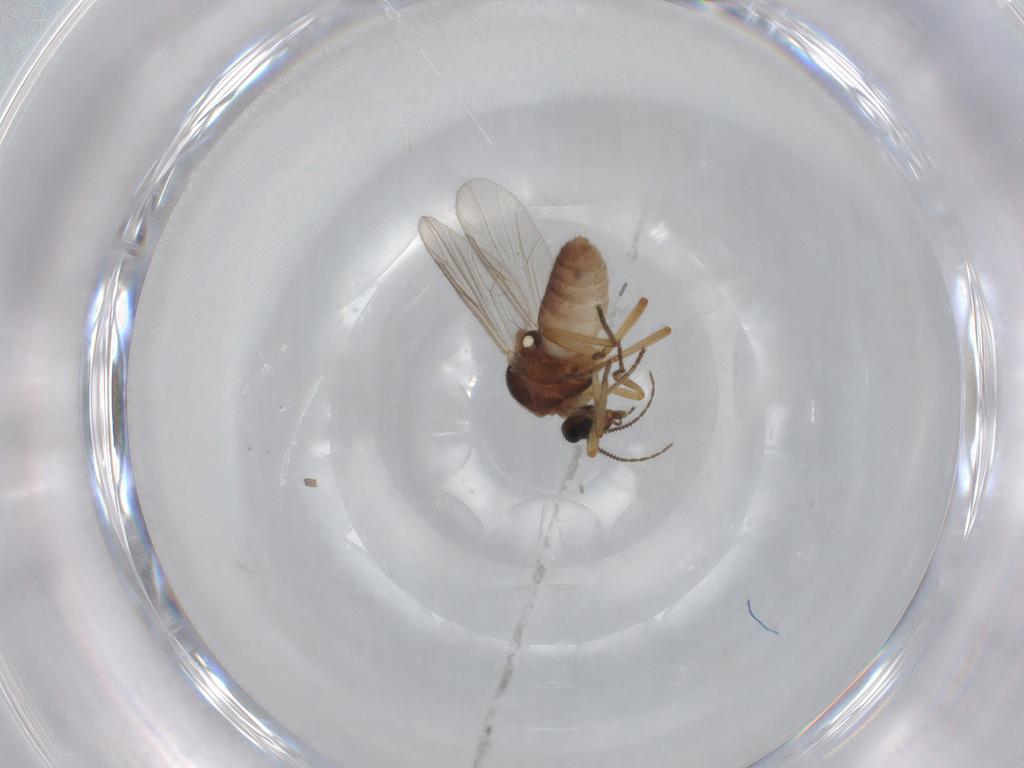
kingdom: Animalia
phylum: Arthropoda
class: Insecta
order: Diptera
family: Ceratopogonidae
